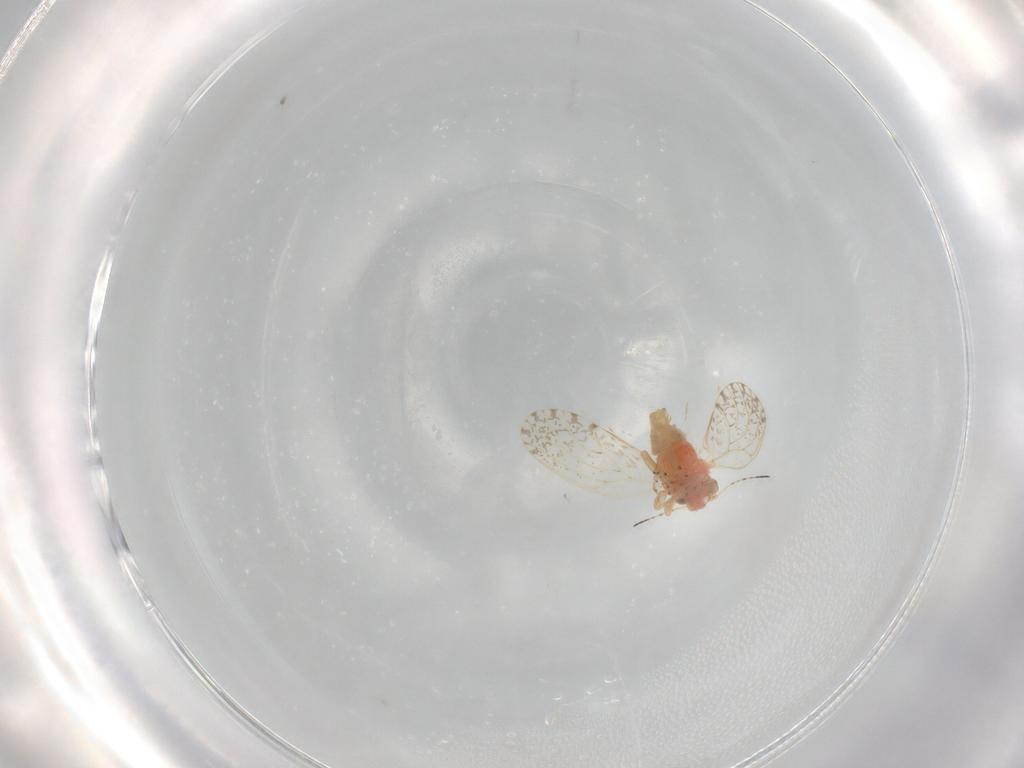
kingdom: Animalia
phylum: Arthropoda
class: Insecta
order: Hemiptera
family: Psyllidae
